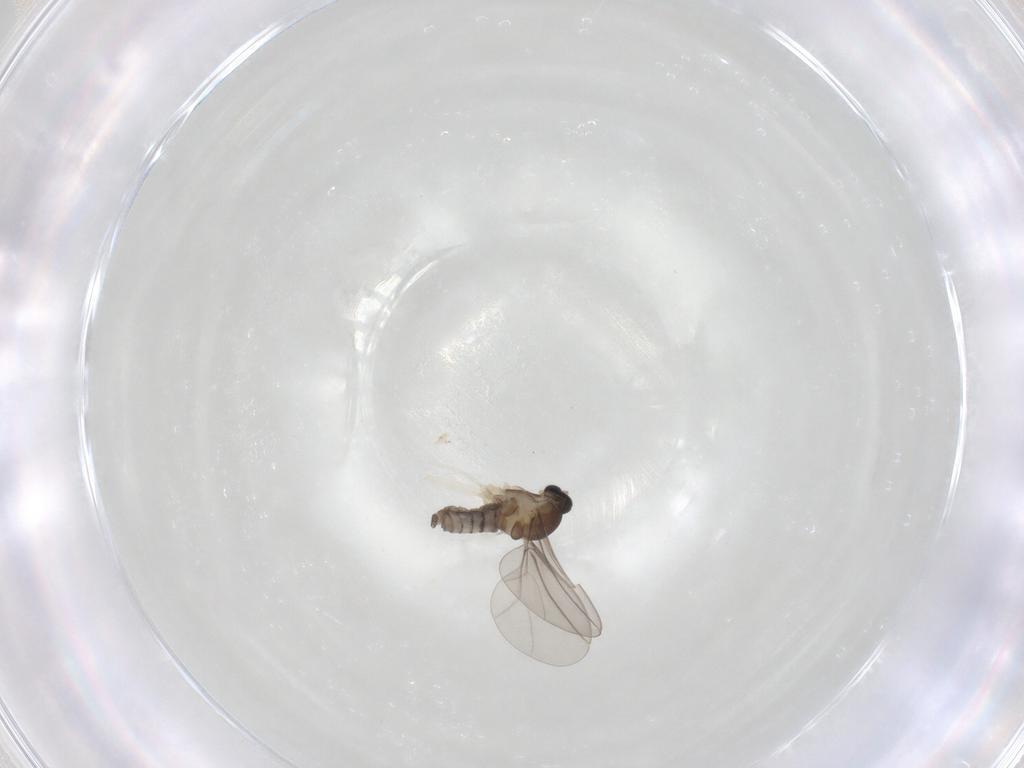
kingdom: Animalia
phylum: Arthropoda
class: Insecta
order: Diptera
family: Cecidomyiidae
